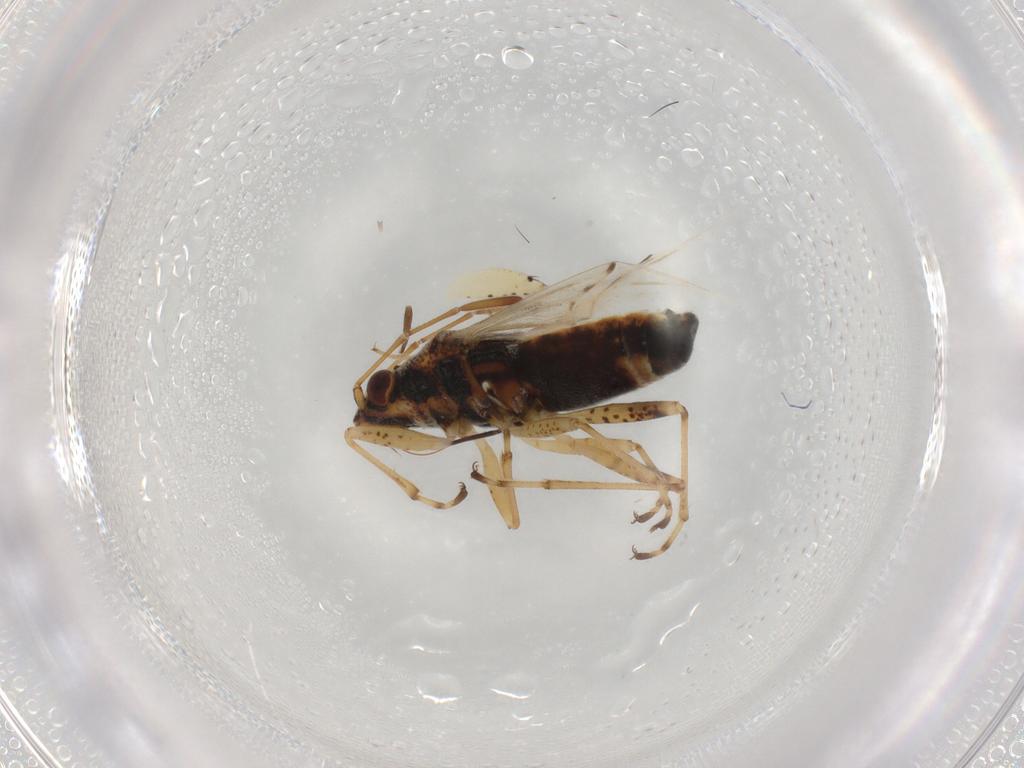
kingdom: Animalia
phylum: Arthropoda
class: Insecta
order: Hemiptera
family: Lygaeidae
